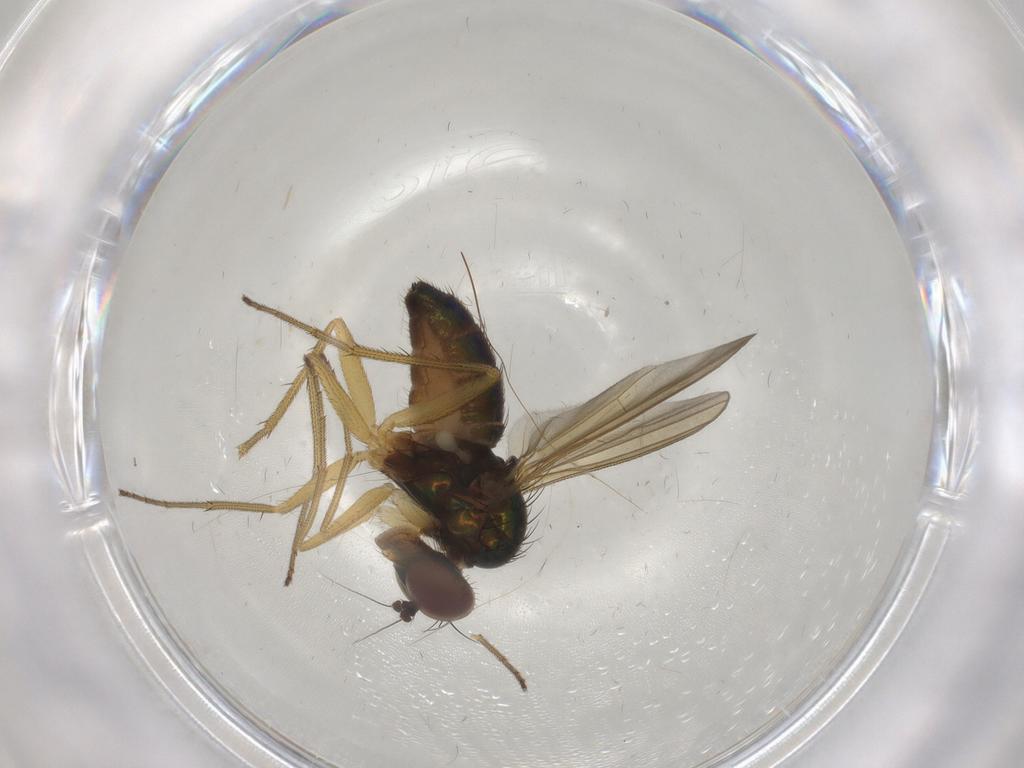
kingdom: Animalia
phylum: Arthropoda
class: Insecta
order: Diptera
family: Dolichopodidae
